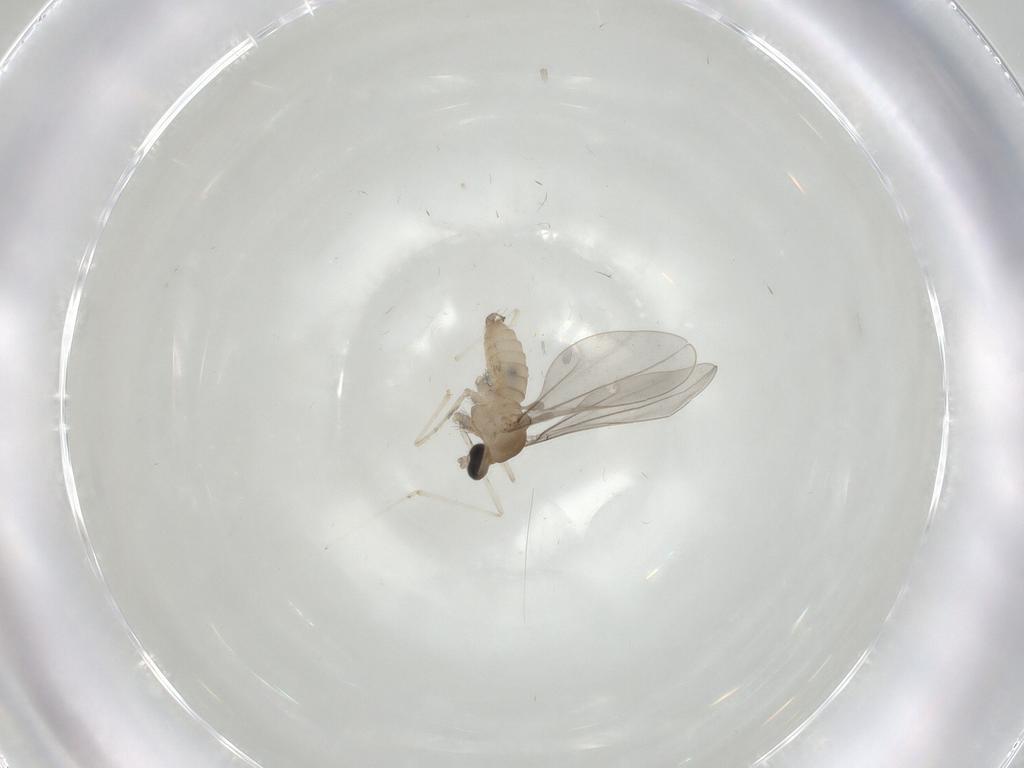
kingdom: Animalia
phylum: Arthropoda
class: Insecta
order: Diptera
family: Cecidomyiidae
